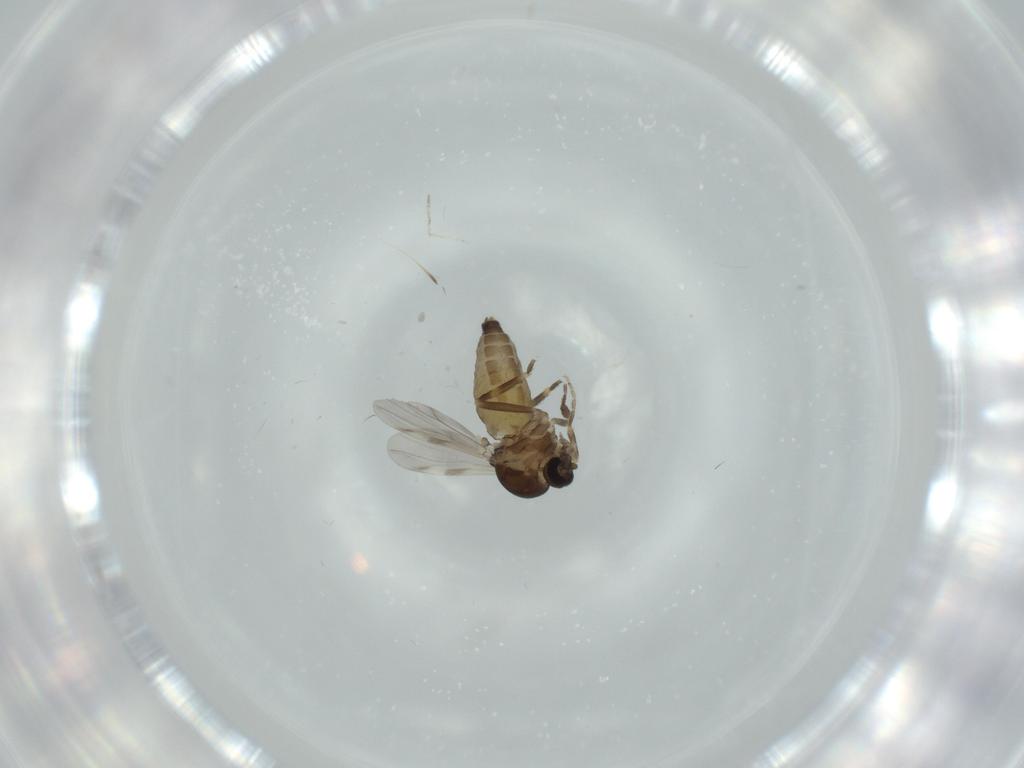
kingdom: Animalia
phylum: Arthropoda
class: Insecta
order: Diptera
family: Ceratopogonidae
